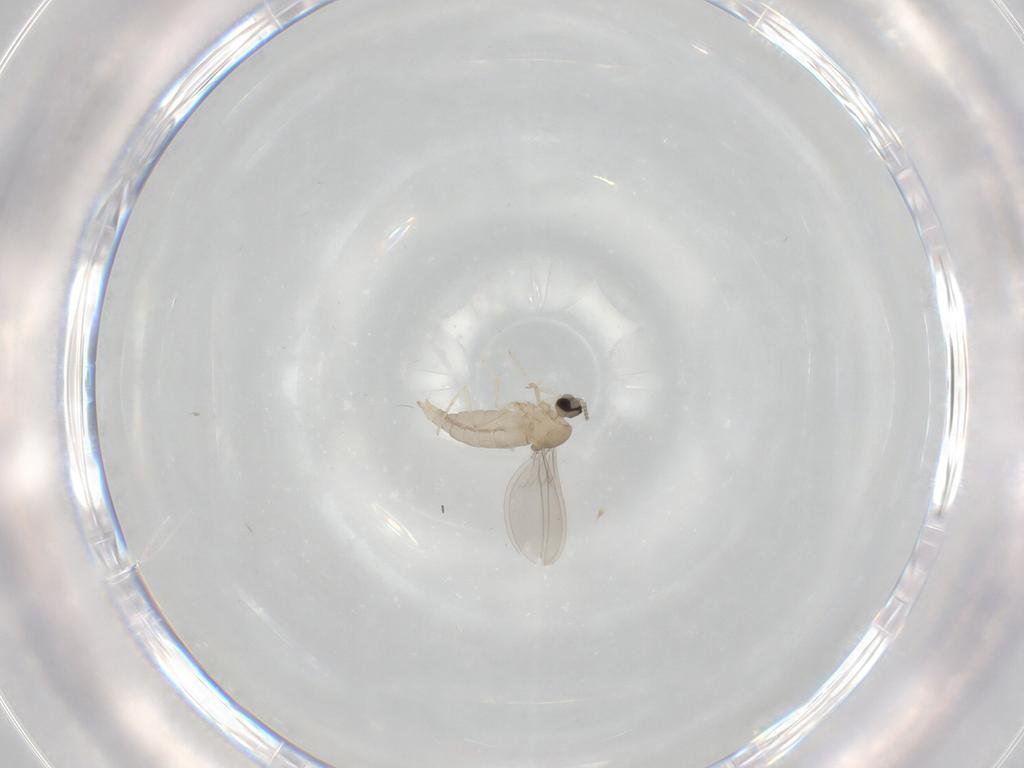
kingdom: Animalia
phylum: Arthropoda
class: Insecta
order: Diptera
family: Cecidomyiidae
